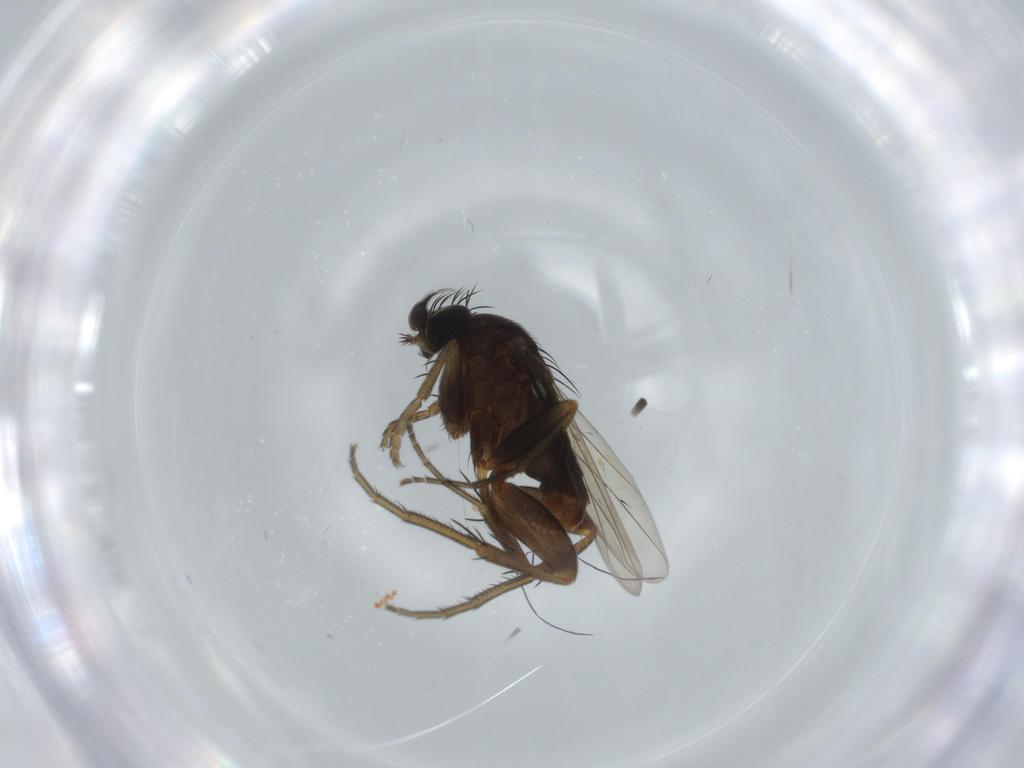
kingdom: Animalia
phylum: Arthropoda
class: Insecta
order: Diptera
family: Phoridae
